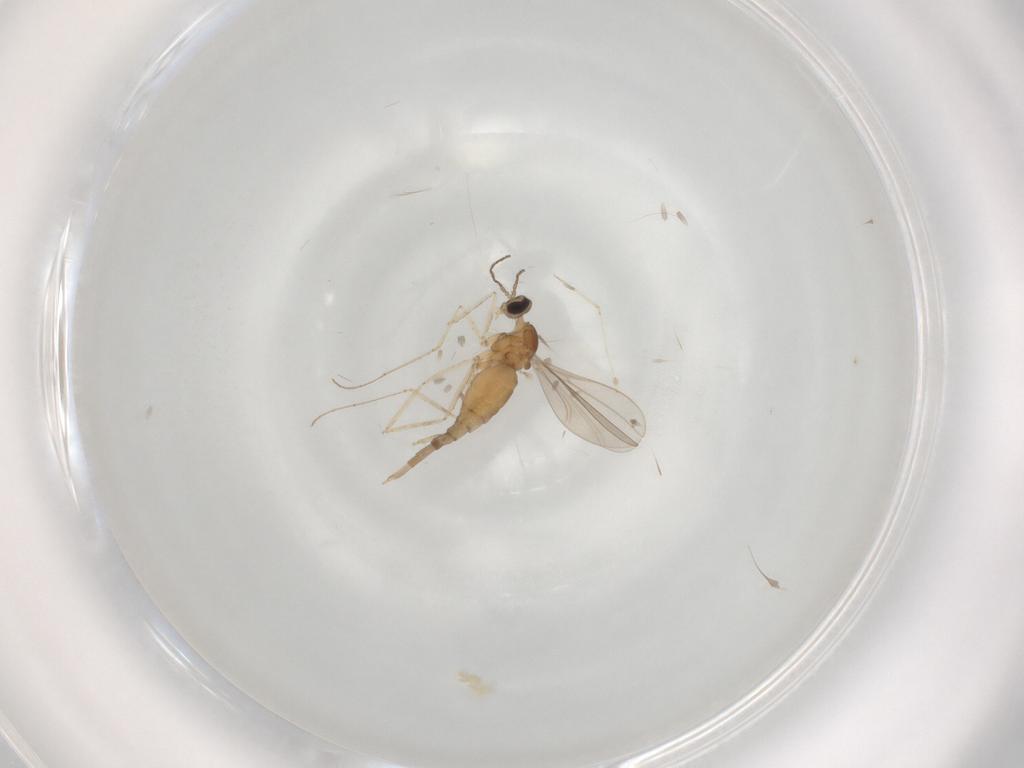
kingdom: Animalia
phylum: Arthropoda
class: Insecta
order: Diptera
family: Cecidomyiidae
